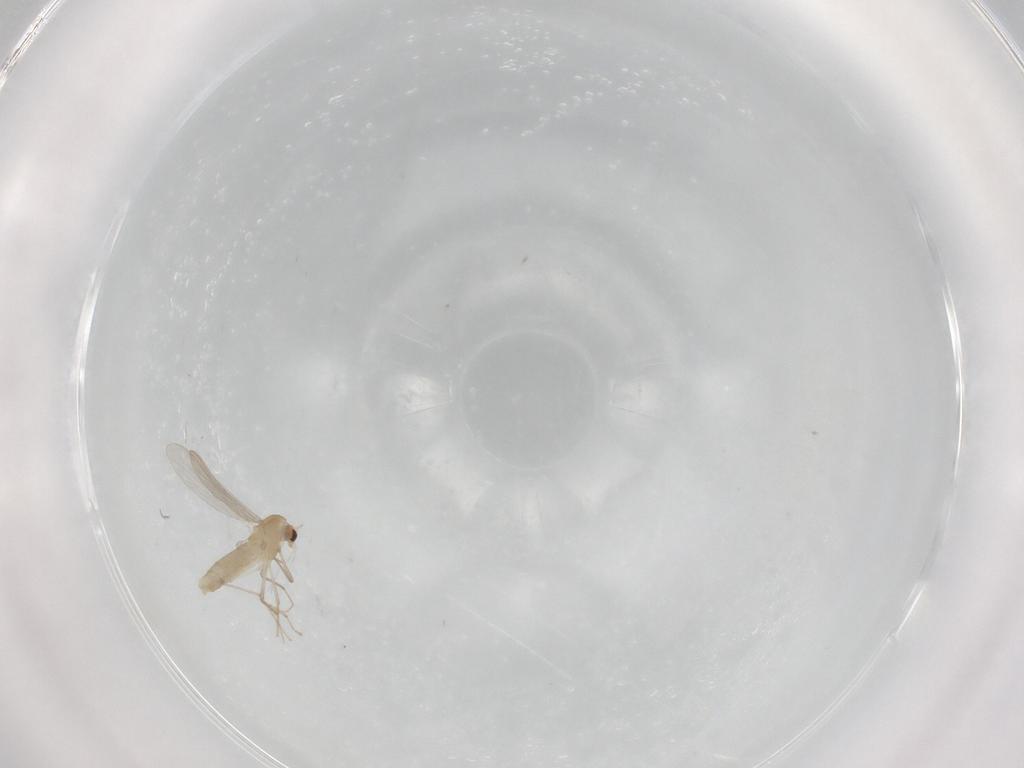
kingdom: Animalia
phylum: Arthropoda
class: Insecta
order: Diptera
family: Chironomidae
